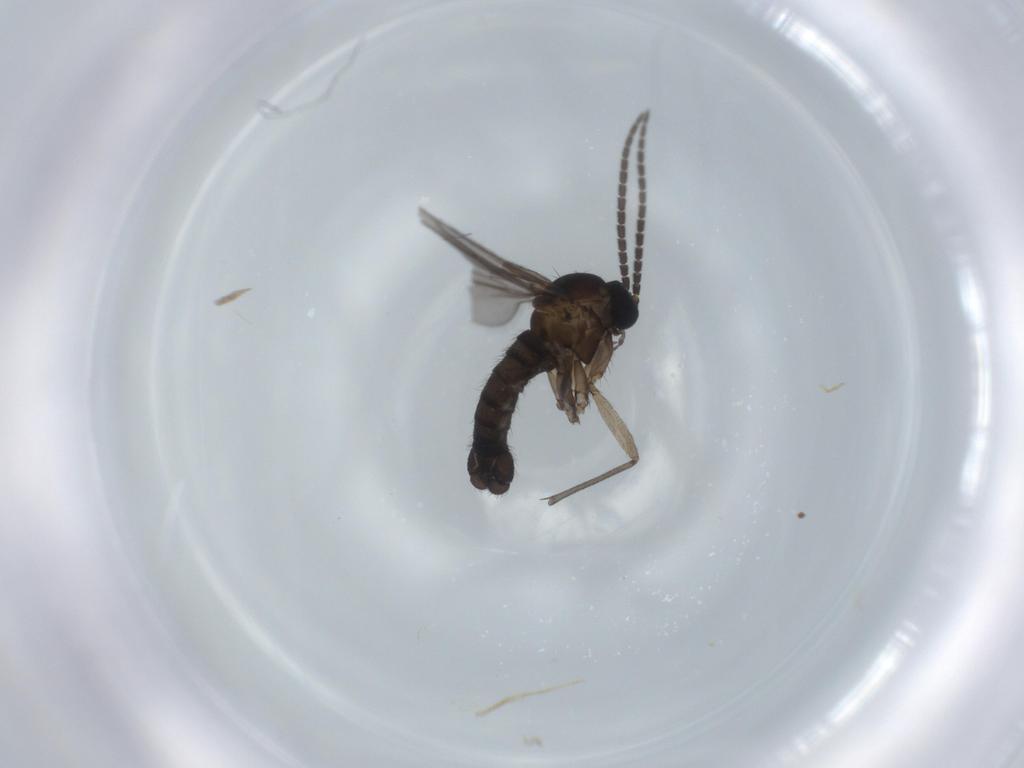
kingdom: Animalia
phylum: Arthropoda
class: Insecta
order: Diptera
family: Sciaridae
